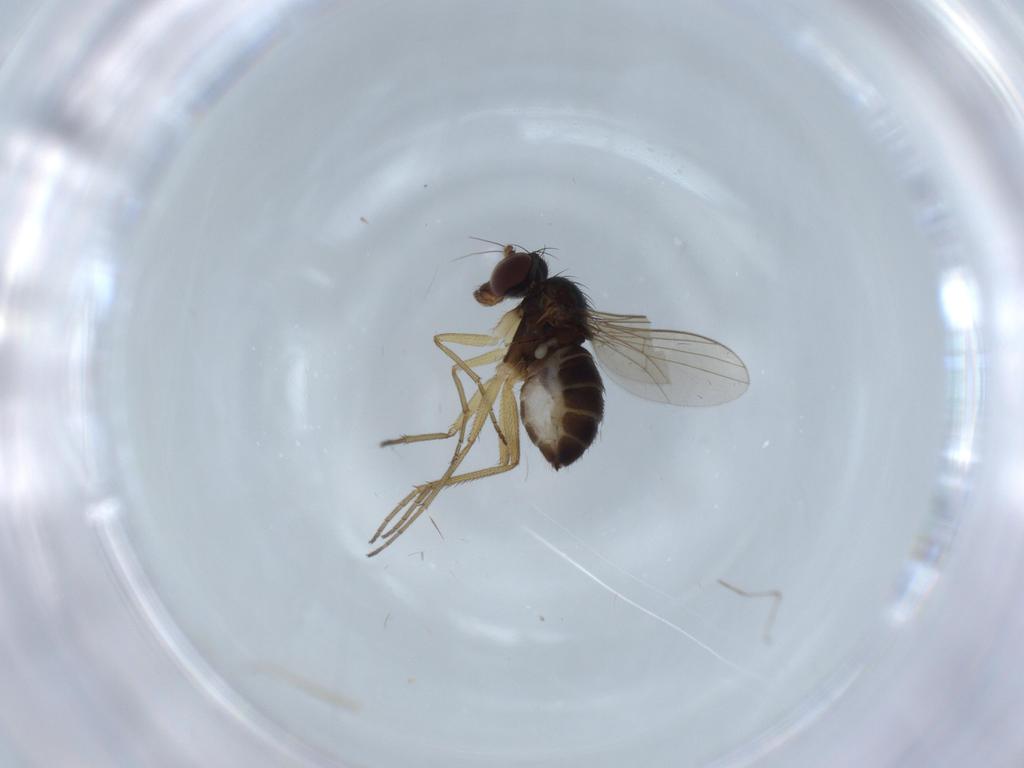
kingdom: Animalia
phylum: Arthropoda
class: Insecta
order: Diptera
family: Dolichopodidae
